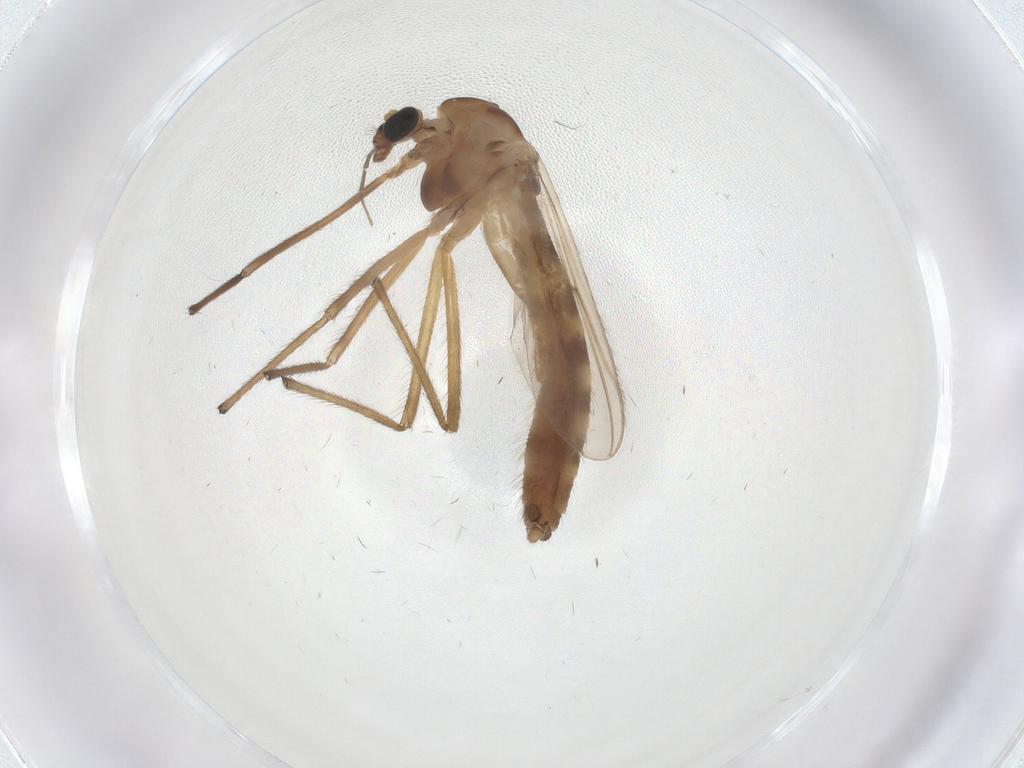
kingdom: Animalia
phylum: Arthropoda
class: Insecta
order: Diptera
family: Chironomidae
